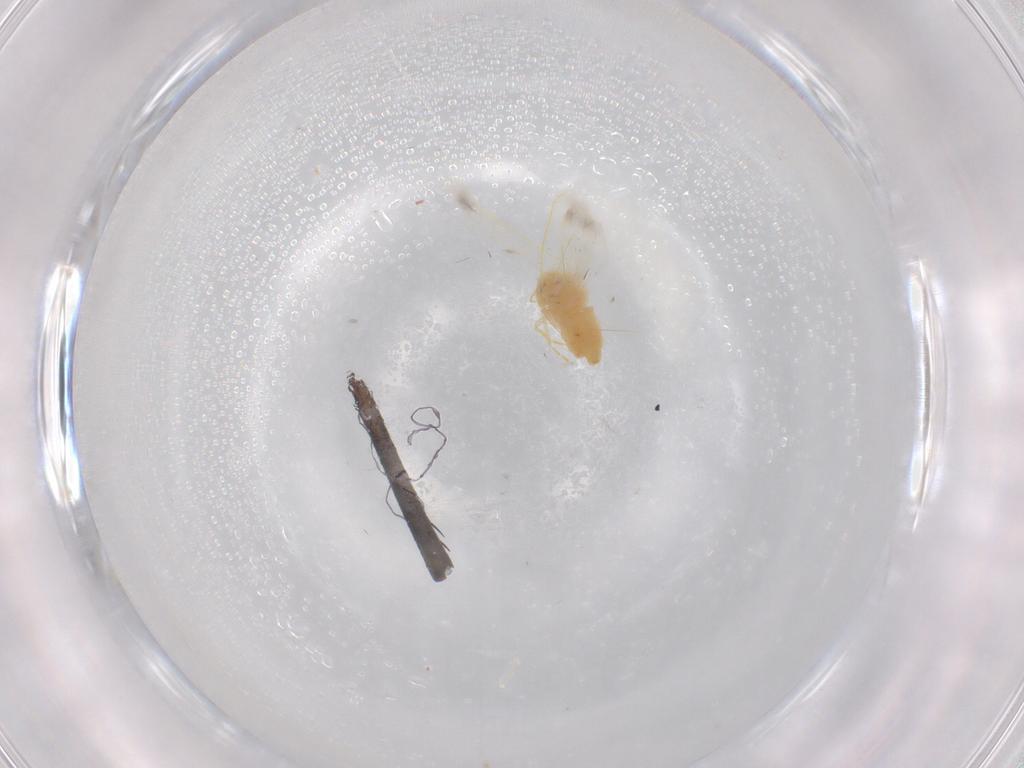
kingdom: Animalia
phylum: Arthropoda
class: Insecta
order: Hemiptera
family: Aleyrodidae
